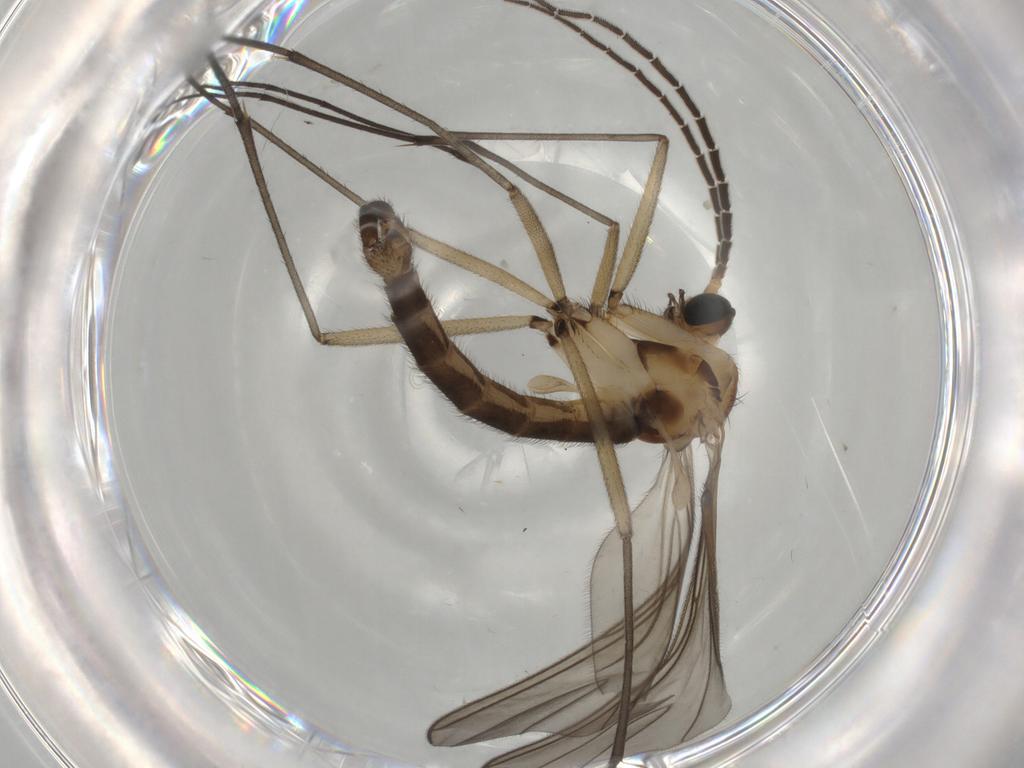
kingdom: Animalia
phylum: Arthropoda
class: Insecta
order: Diptera
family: Sciaridae
